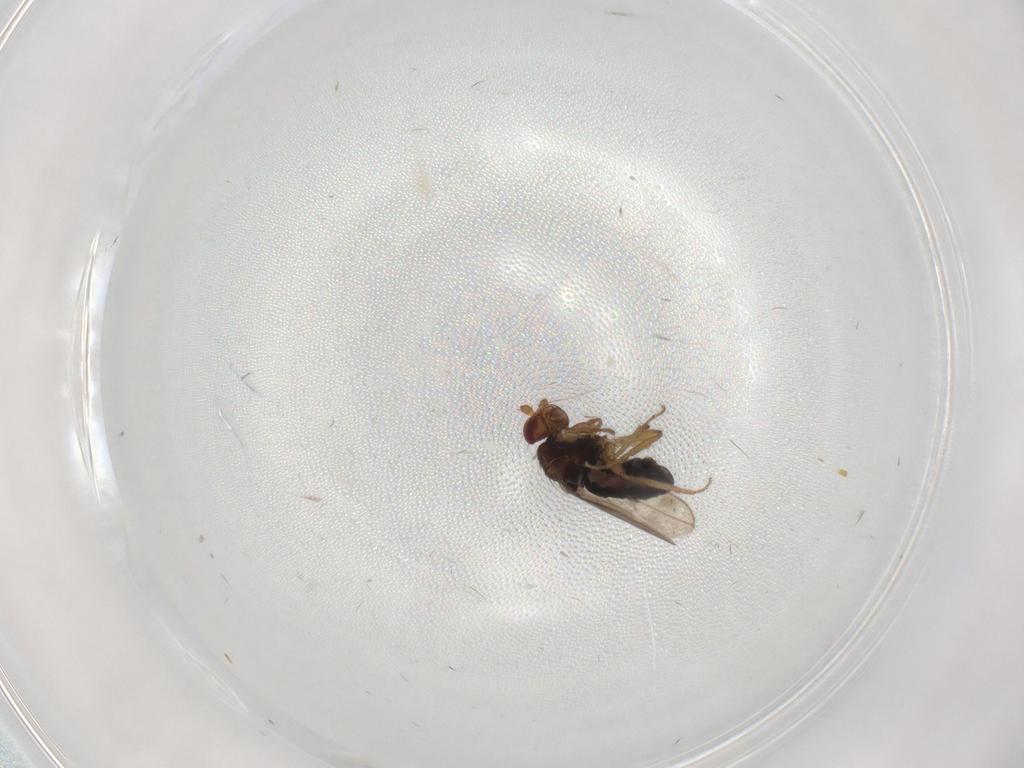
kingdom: Animalia
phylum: Arthropoda
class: Insecta
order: Diptera
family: Sphaeroceridae
